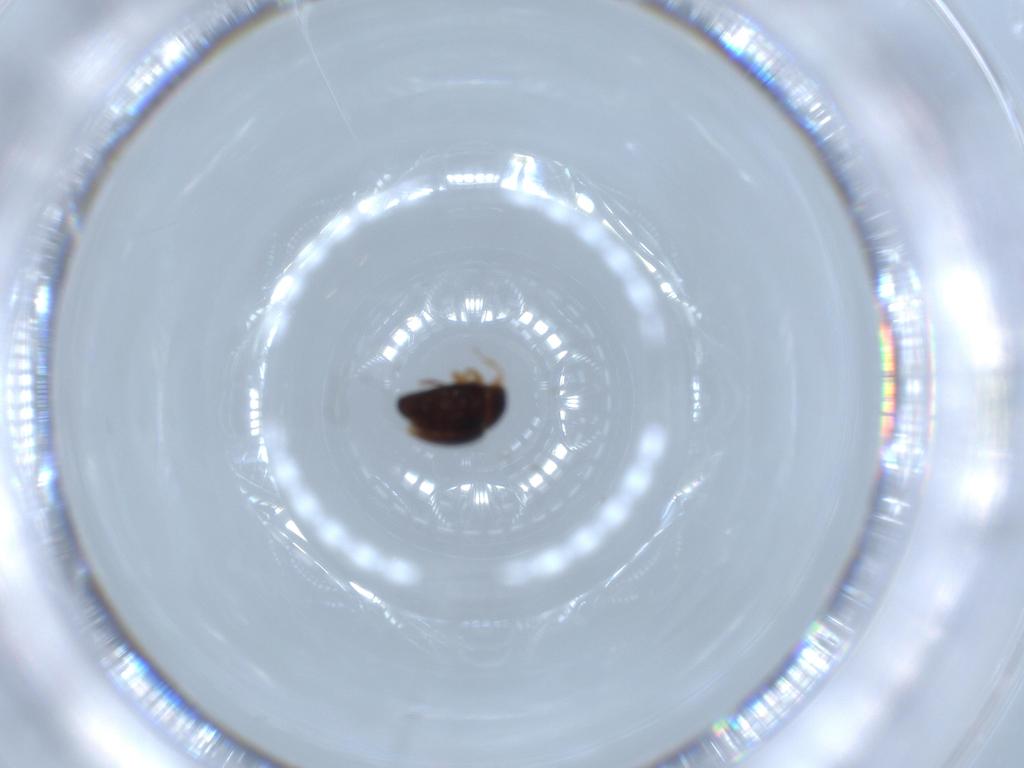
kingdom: Animalia
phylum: Arthropoda
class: Insecta
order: Coleoptera
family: Corylophidae
